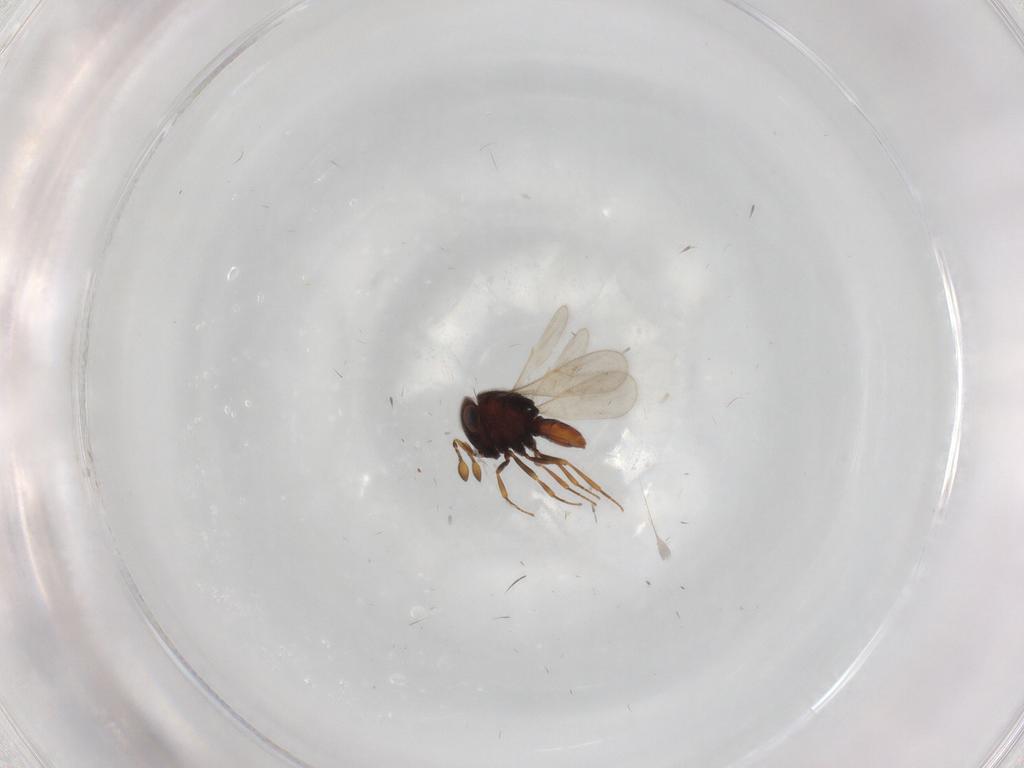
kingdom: Animalia
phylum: Arthropoda
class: Insecta
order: Hymenoptera
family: Scelionidae
